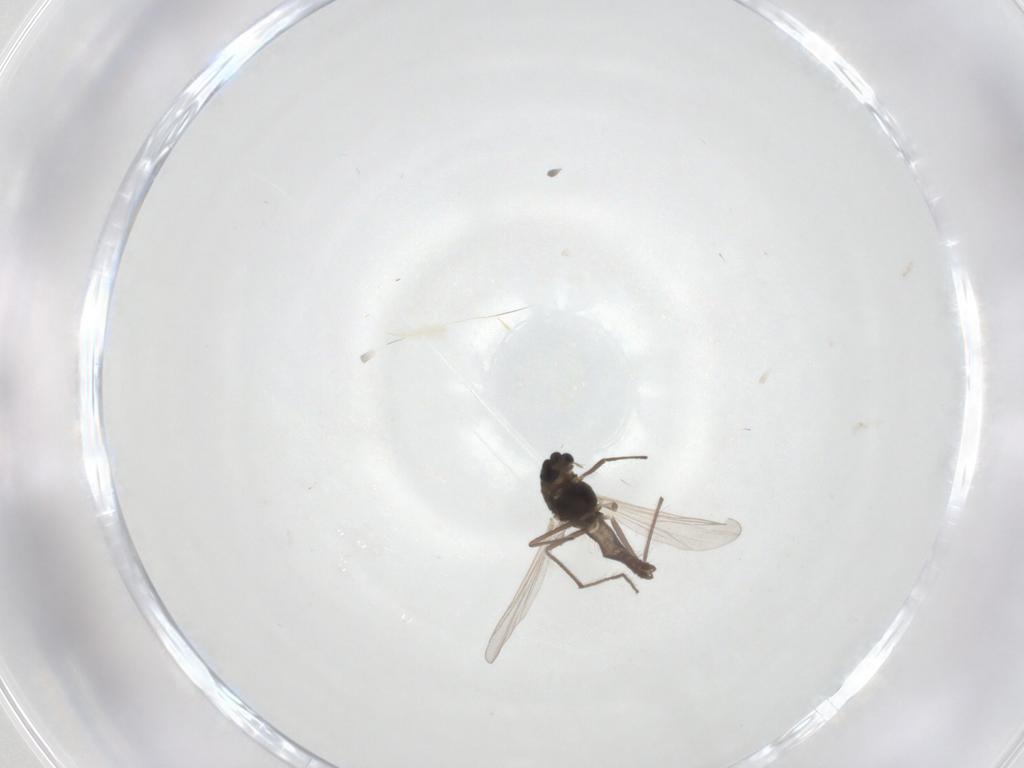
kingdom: Animalia
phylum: Arthropoda
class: Insecta
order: Diptera
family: Chironomidae
